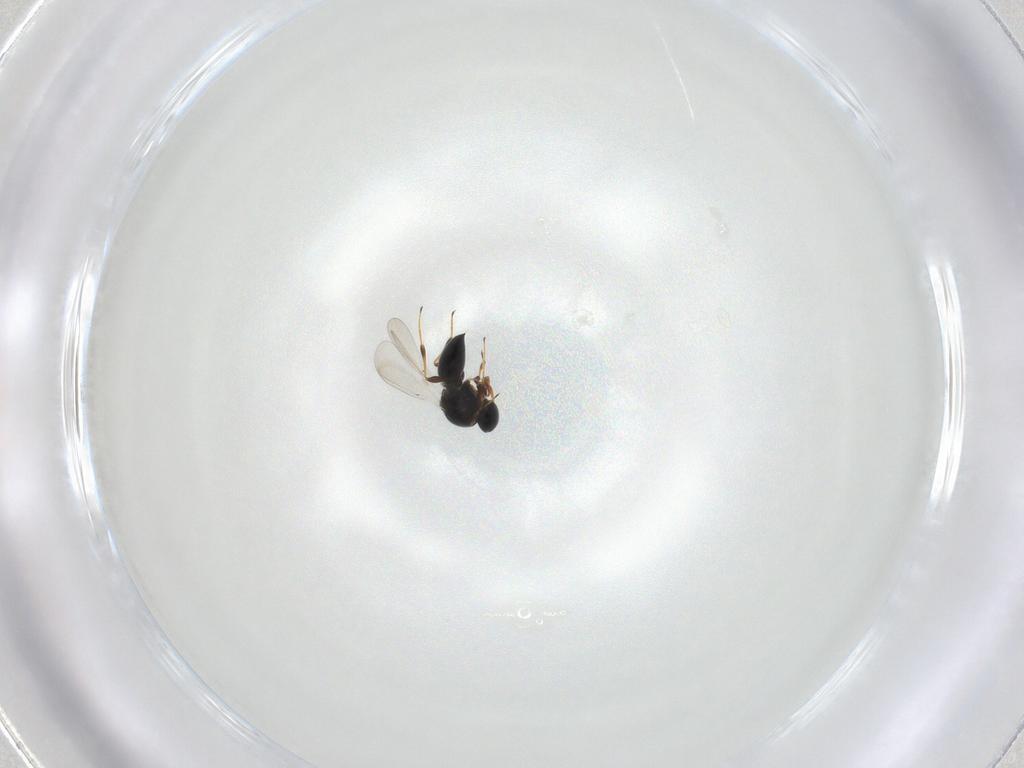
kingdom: Animalia
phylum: Arthropoda
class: Insecta
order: Hymenoptera
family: Platygastridae
